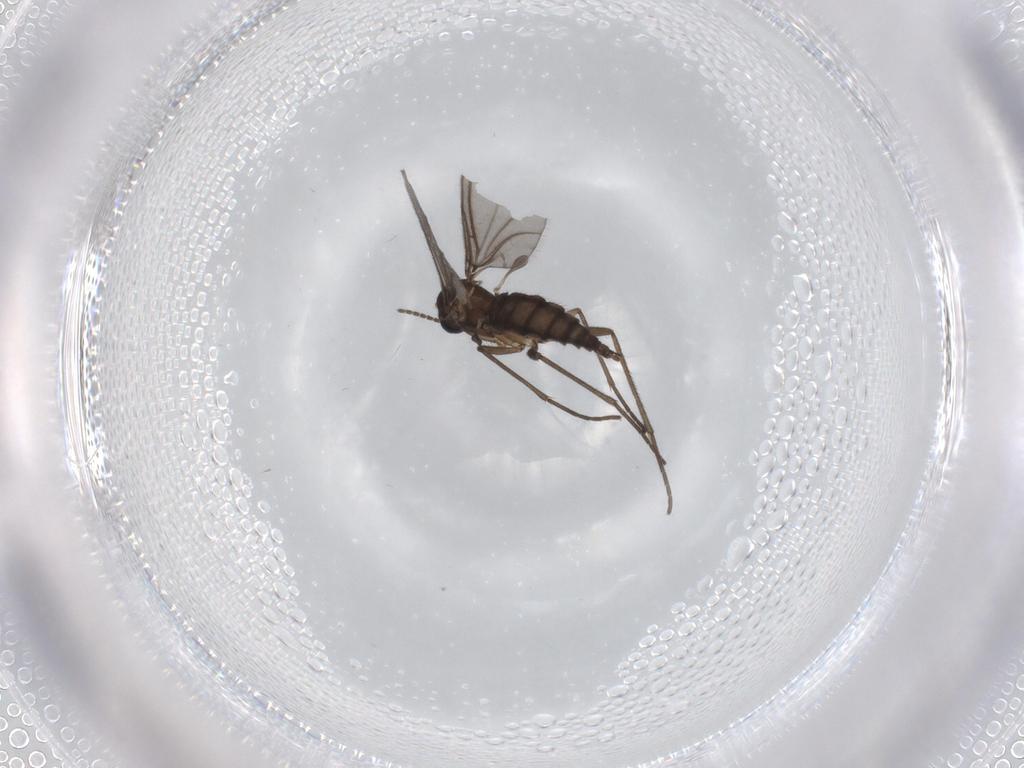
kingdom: Animalia
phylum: Arthropoda
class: Insecta
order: Diptera
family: Sciaridae
